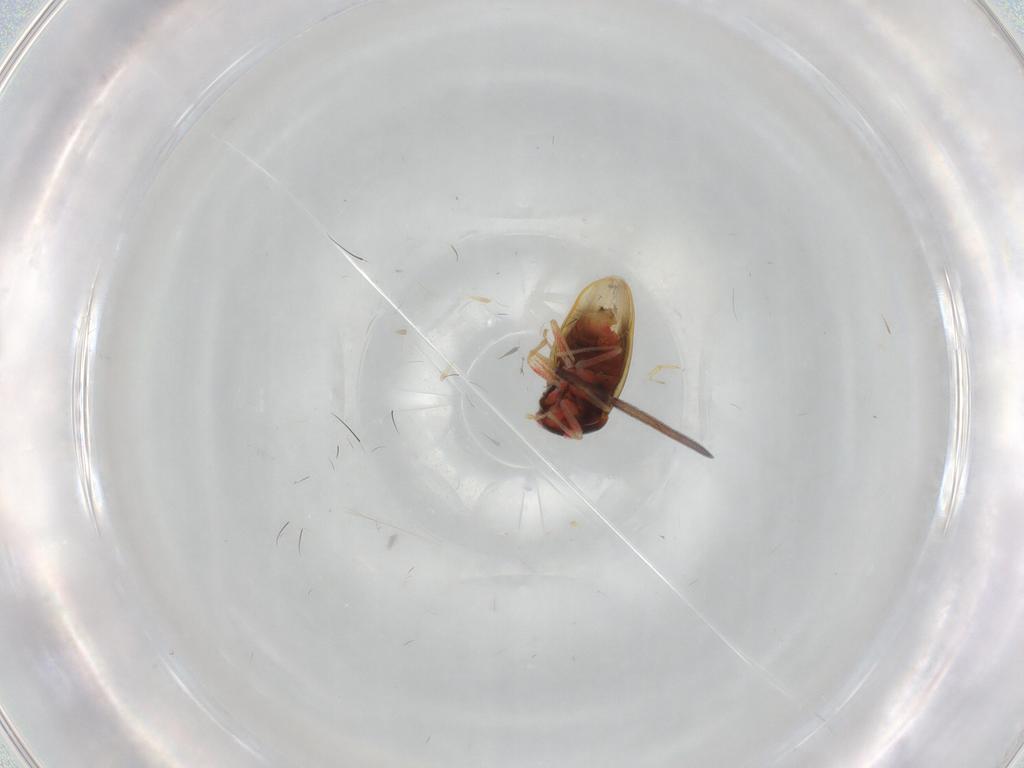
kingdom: Animalia
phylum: Arthropoda
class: Insecta
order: Hemiptera
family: Schizopteridae
